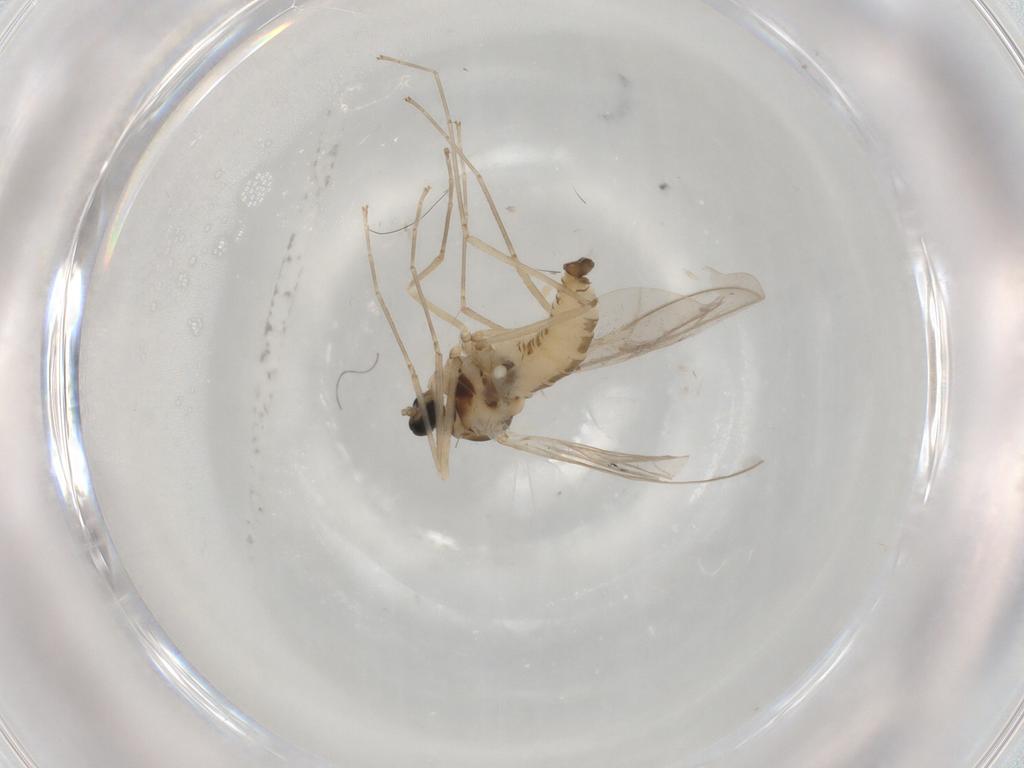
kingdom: Animalia
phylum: Arthropoda
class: Insecta
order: Diptera
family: Cecidomyiidae
